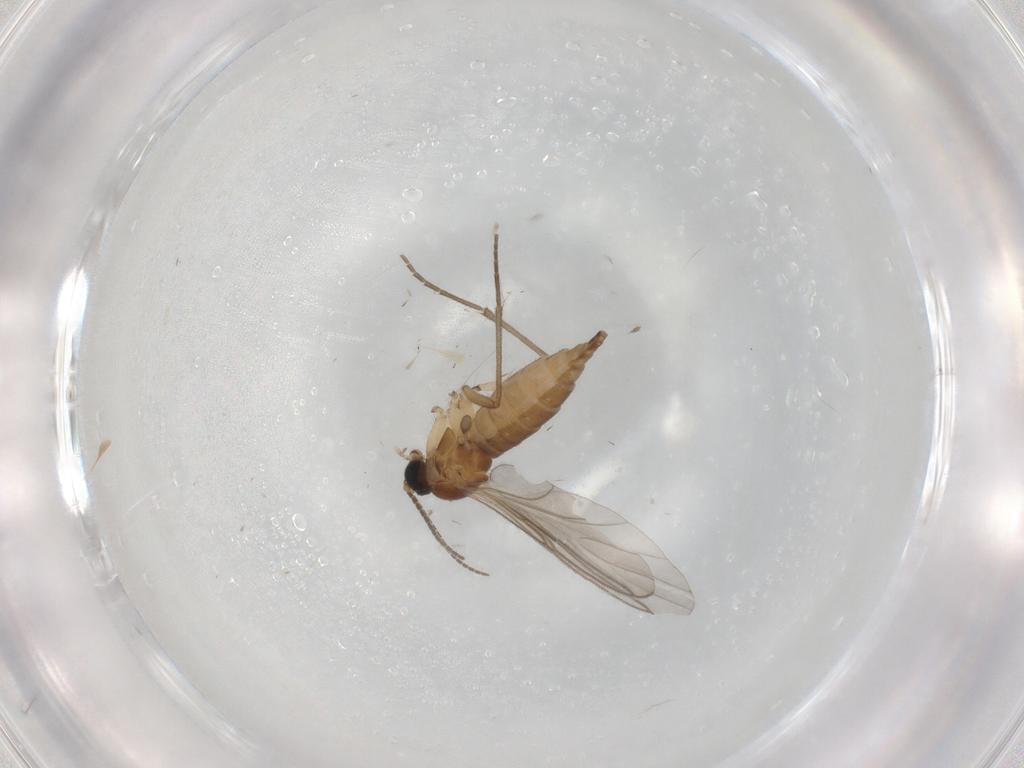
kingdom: Animalia
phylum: Arthropoda
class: Insecta
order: Diptera
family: Sciaridae
